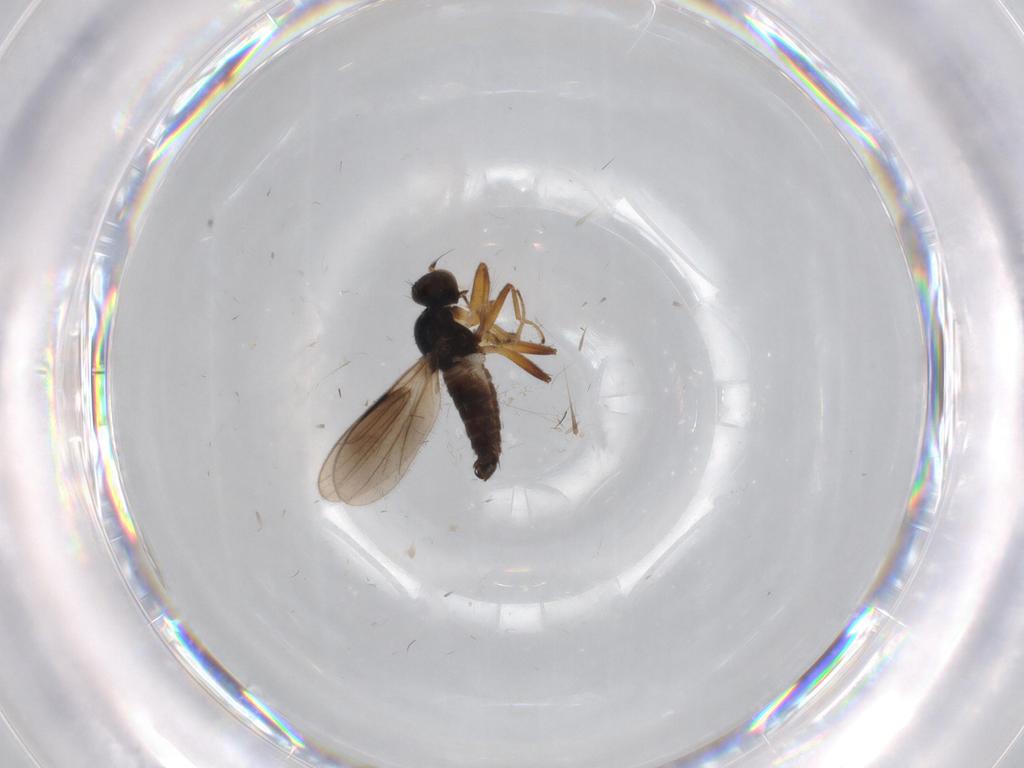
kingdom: Animalia
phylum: Arthropoda
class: Insecta
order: Diptera
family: Hybotidae
